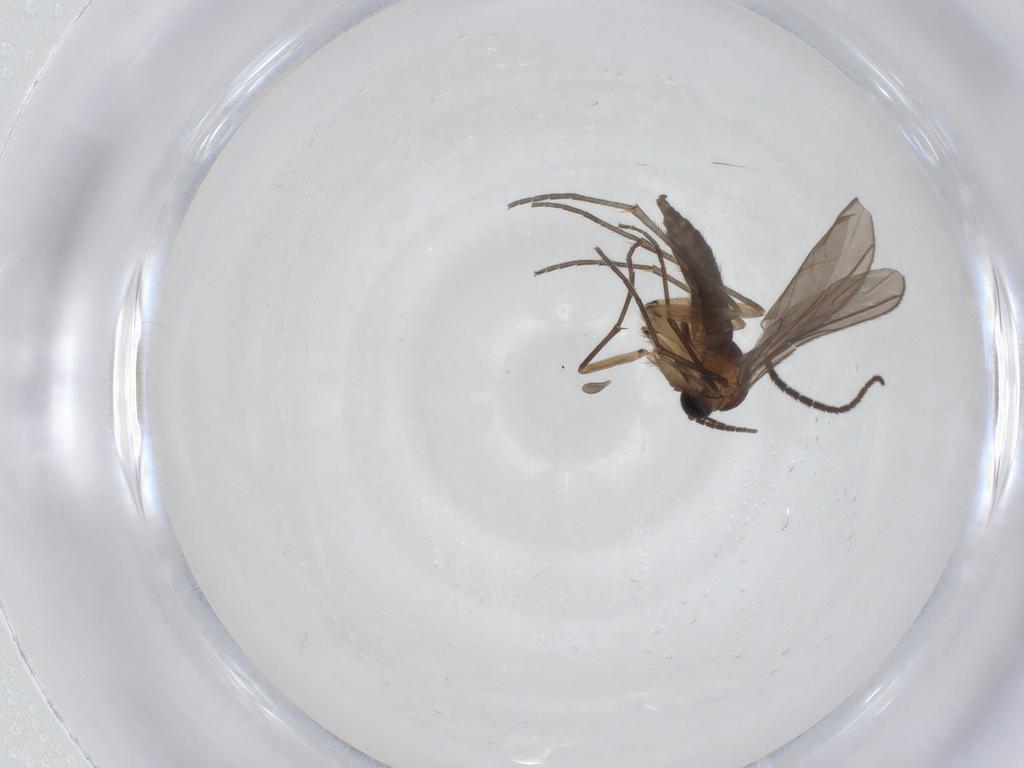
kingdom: Animalia
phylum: Arthropoda
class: Insecta
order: Diptera
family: Sciaridae
